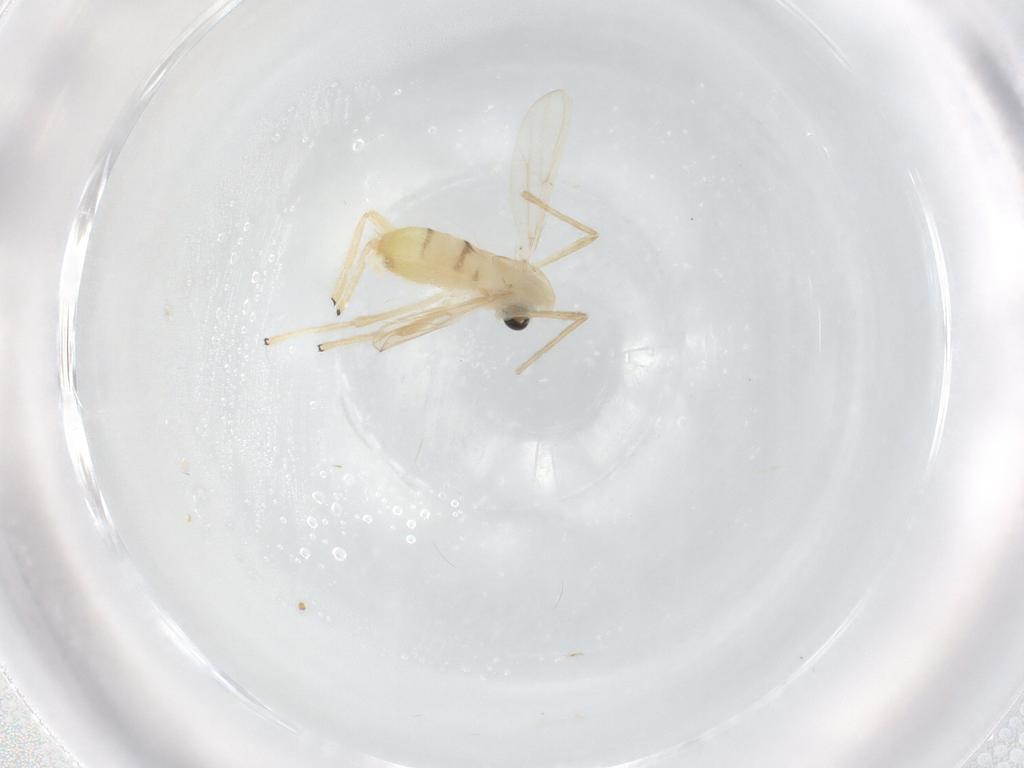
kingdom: Animalia
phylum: Arthropoda
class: Insecta
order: Diptera
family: Chironomidae
